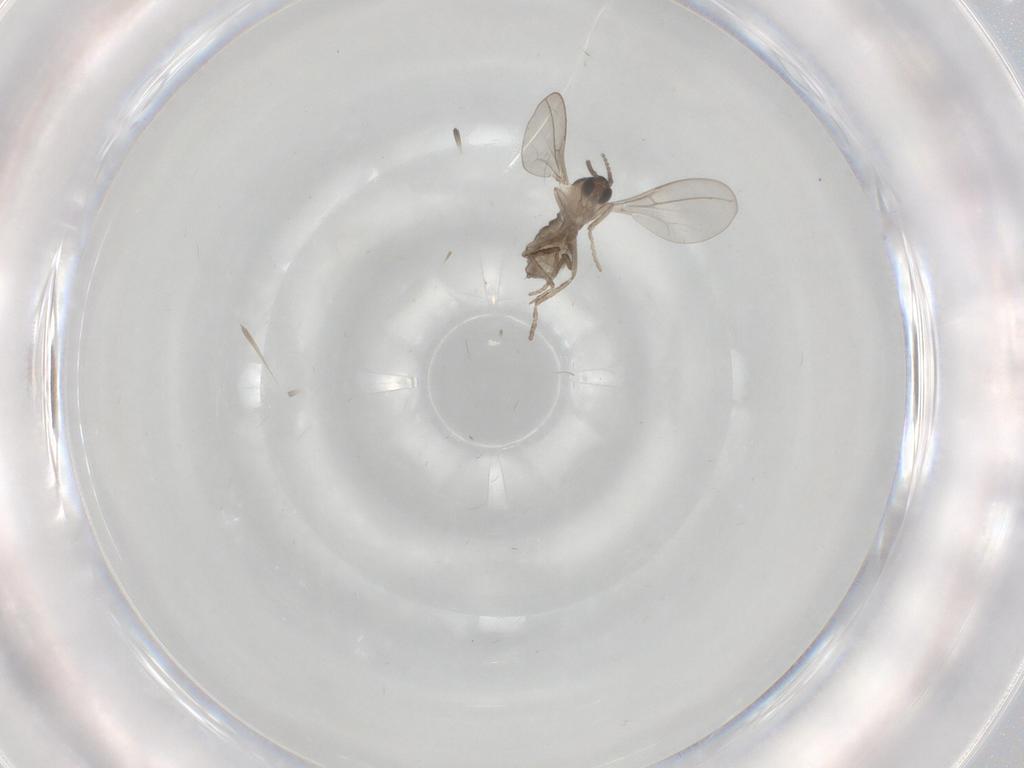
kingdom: Animalia
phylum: Arthropoda
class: Insecta
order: Diptera
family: Cecidomyiidae
